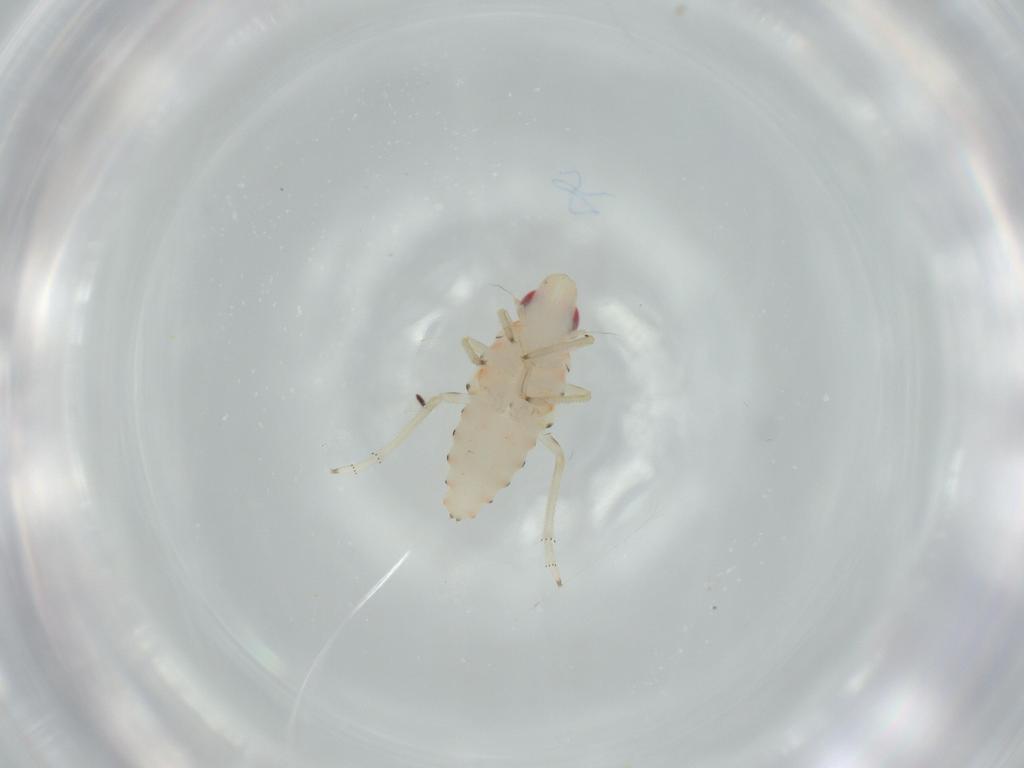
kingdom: Animalia
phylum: Arthropoda
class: Insecta
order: Hemiptera
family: Tropiduchidae
